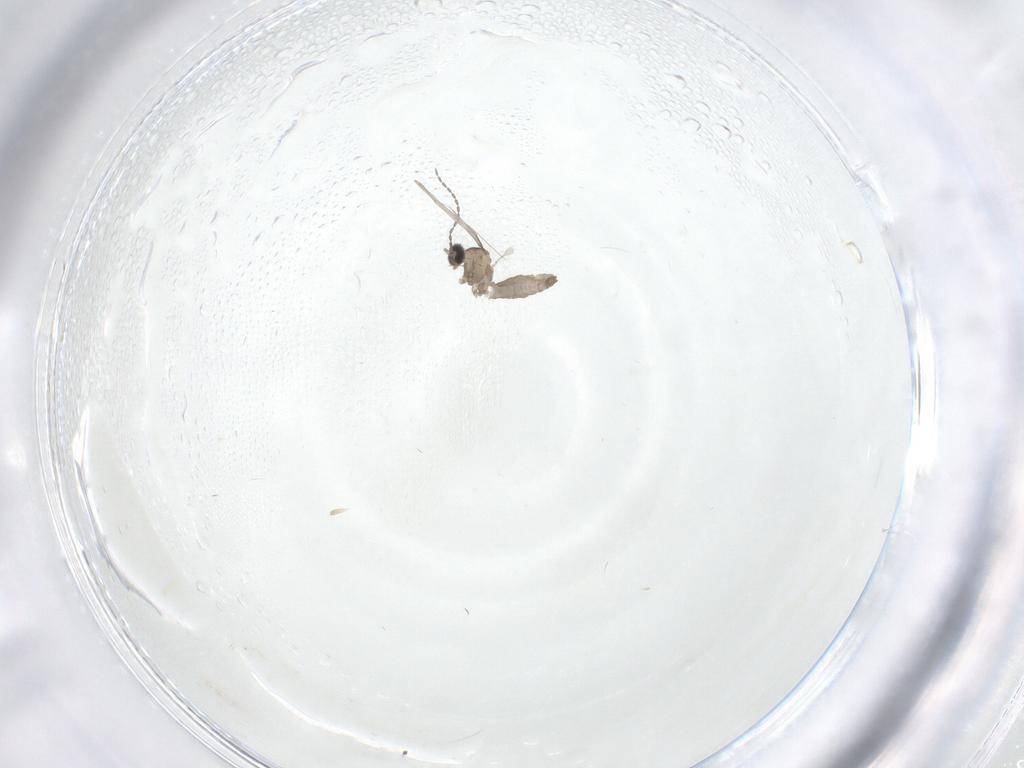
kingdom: Animalia
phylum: Arthropoda
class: Insecta
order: Diptera
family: Cecidomyiidae
